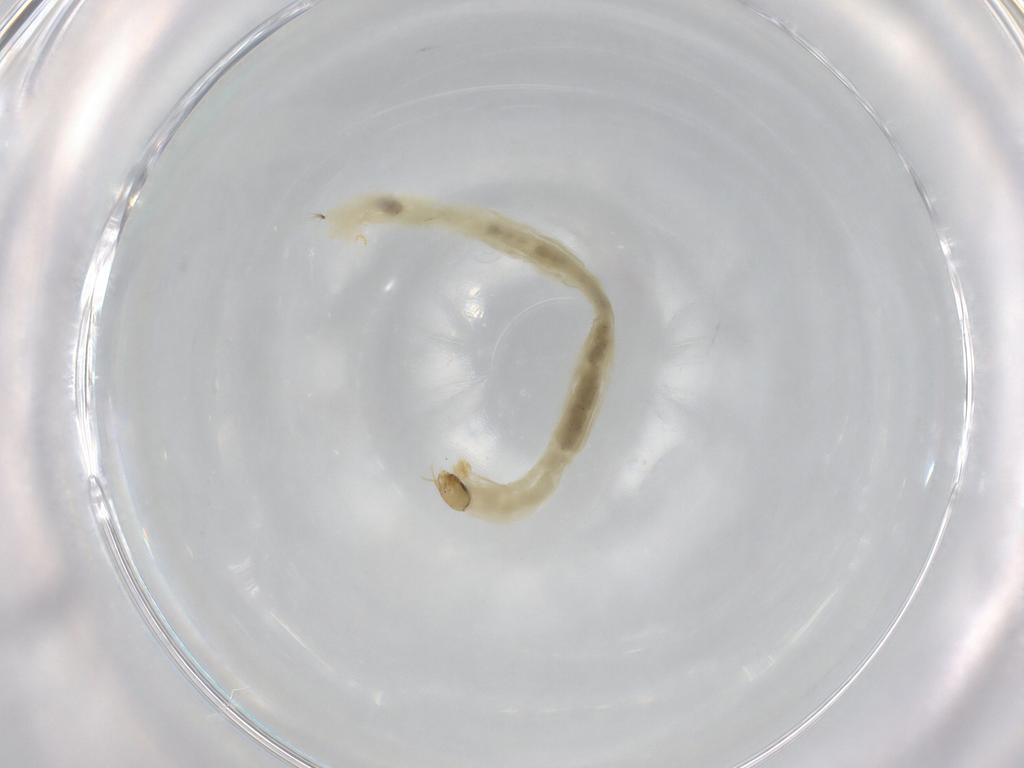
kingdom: Animalia
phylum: Arthropoda
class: Insecta
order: Diptera
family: Chironomidae
